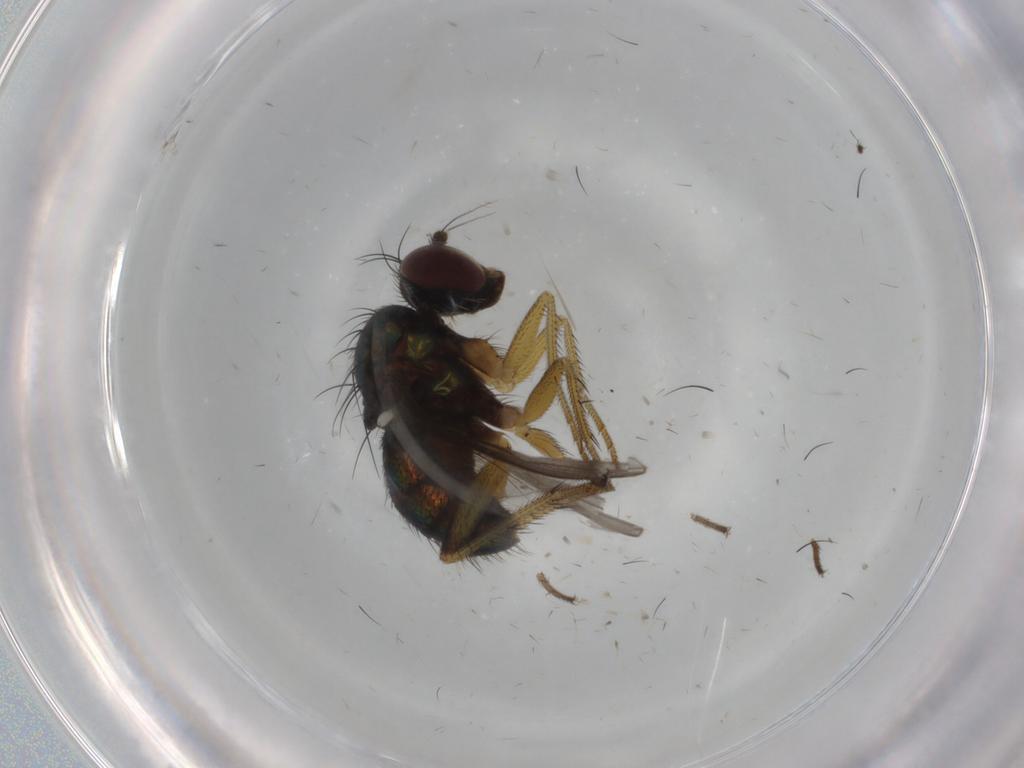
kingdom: Animalia
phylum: Arthropoda
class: Insecta
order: Diptera
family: Dolichopodidae
